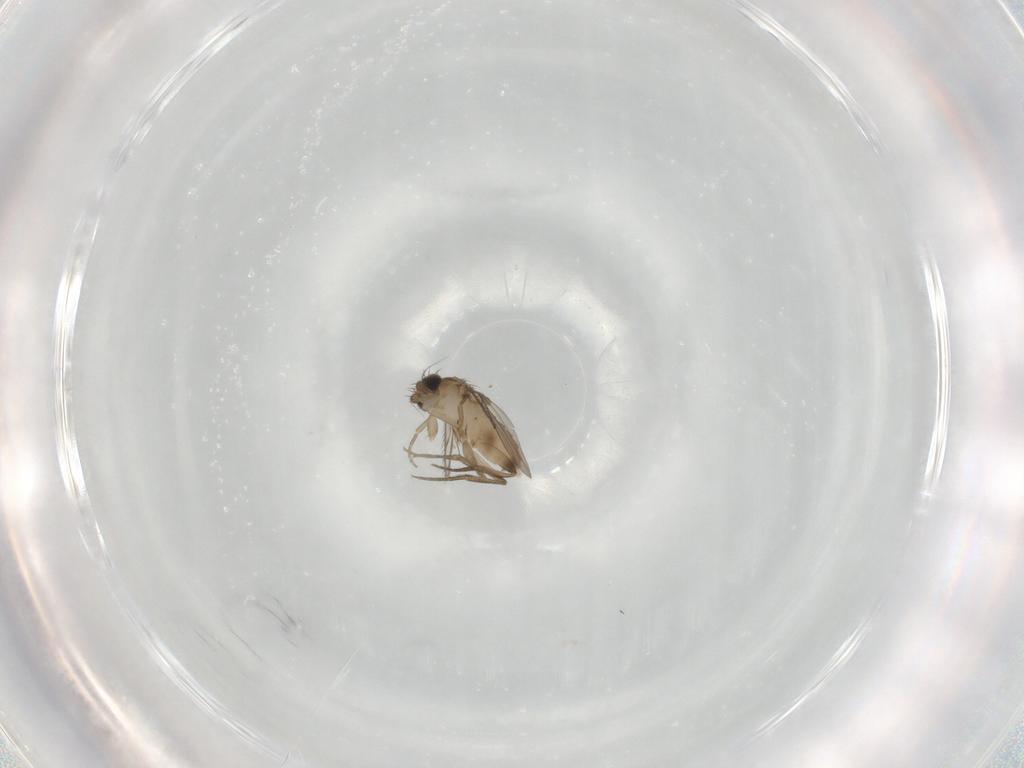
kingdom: Animalia
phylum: Arthropoda
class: Insecta
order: Diptera
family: Phoridae
